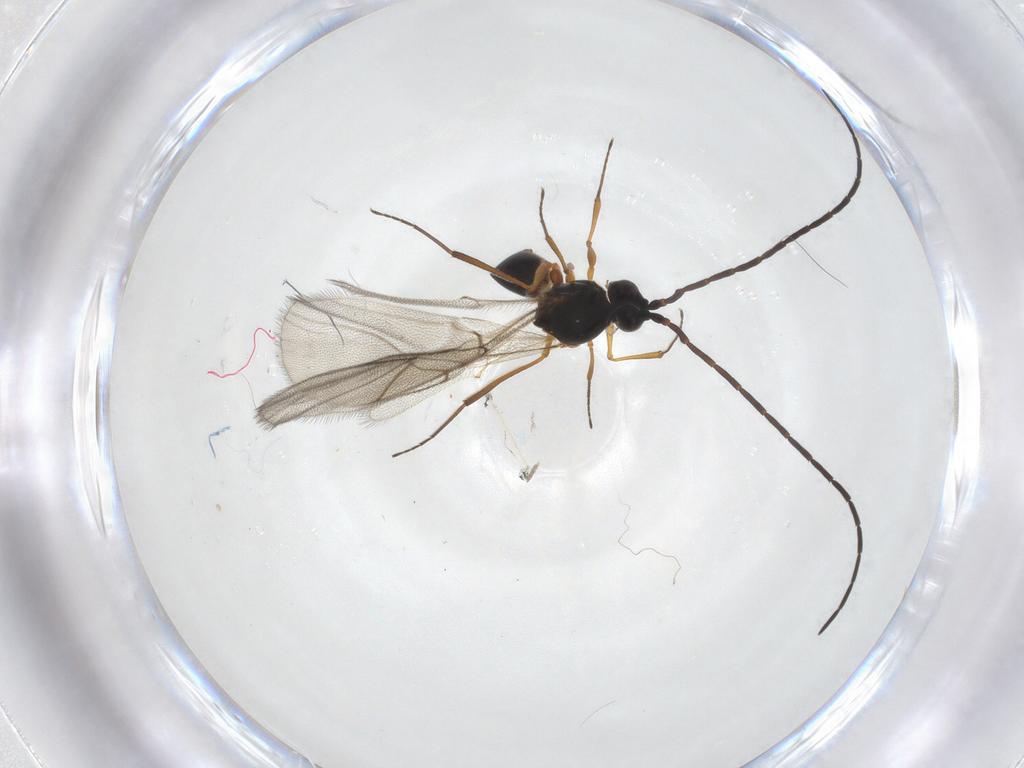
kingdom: Animalia
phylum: Arthropoda
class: Insecta
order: Hymenoptera
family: Figitidae
